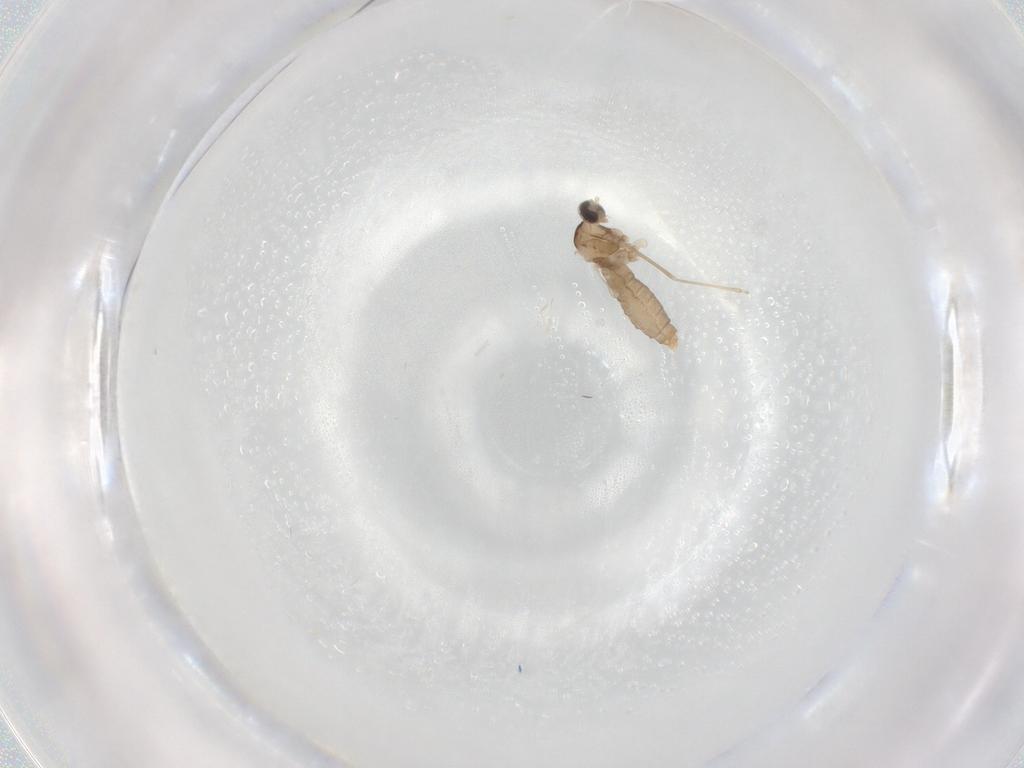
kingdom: Animalia
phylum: Arthropoda
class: Insecta
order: Diptera
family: Cecidomyiidae
